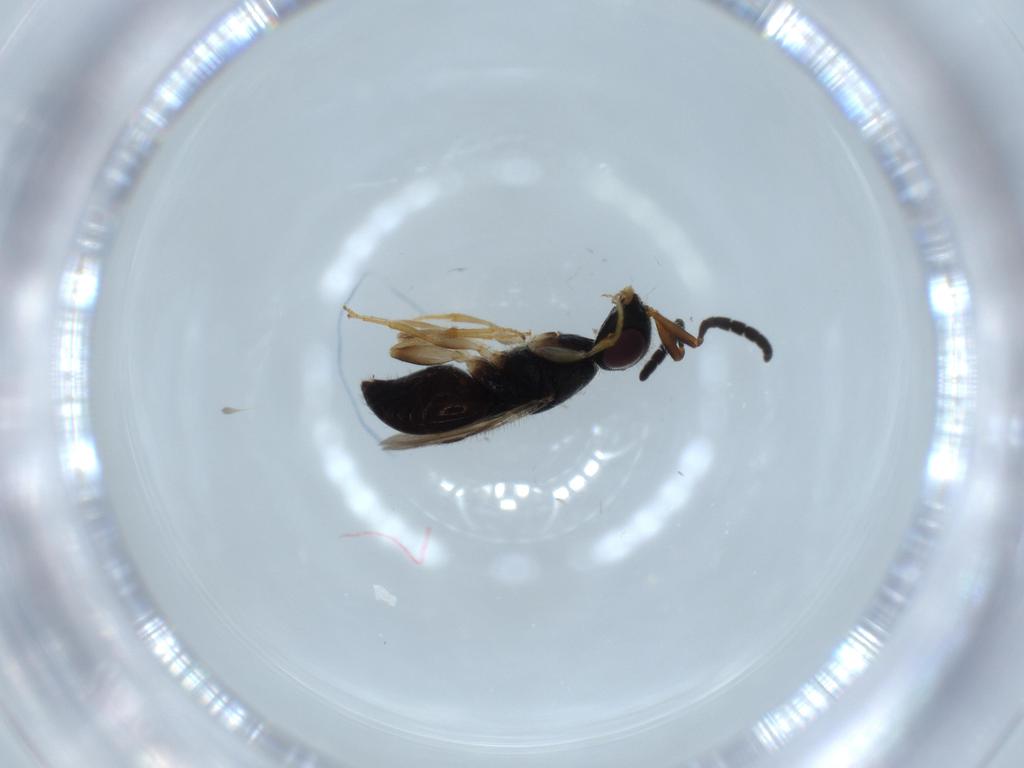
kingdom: Animalia
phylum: Arthropoda
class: Insecta
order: Hymenoptera
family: Megaspilidae
